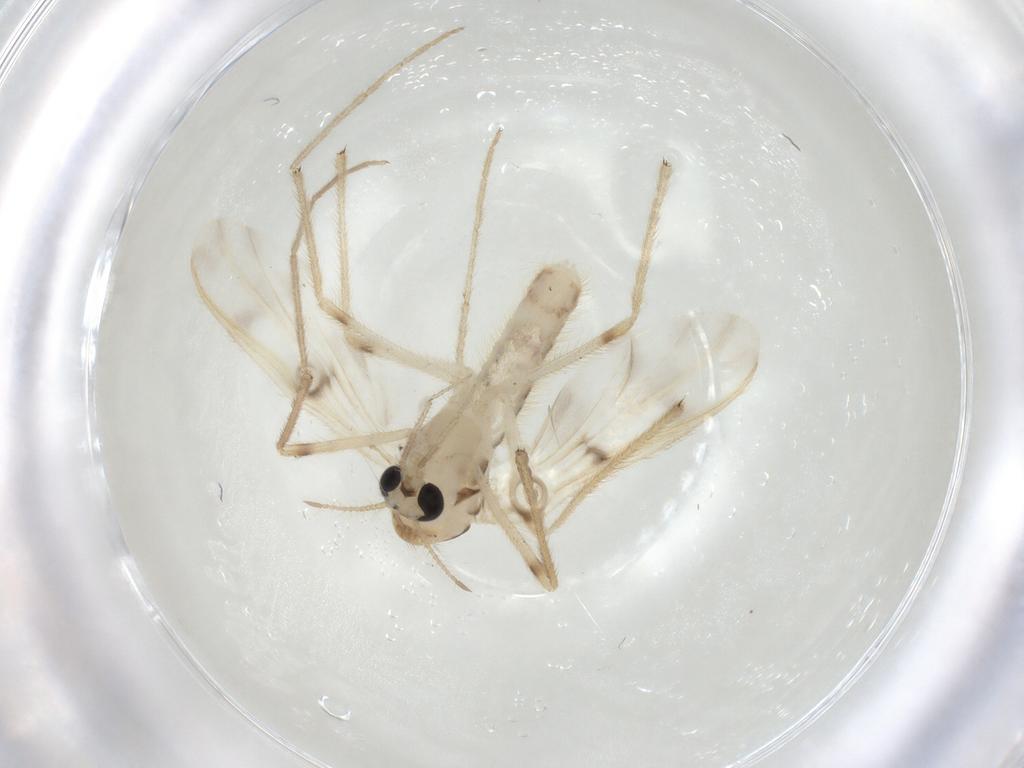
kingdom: Animalia
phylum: Arthropoda
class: Insecta
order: Diptera
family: Chironomidae
